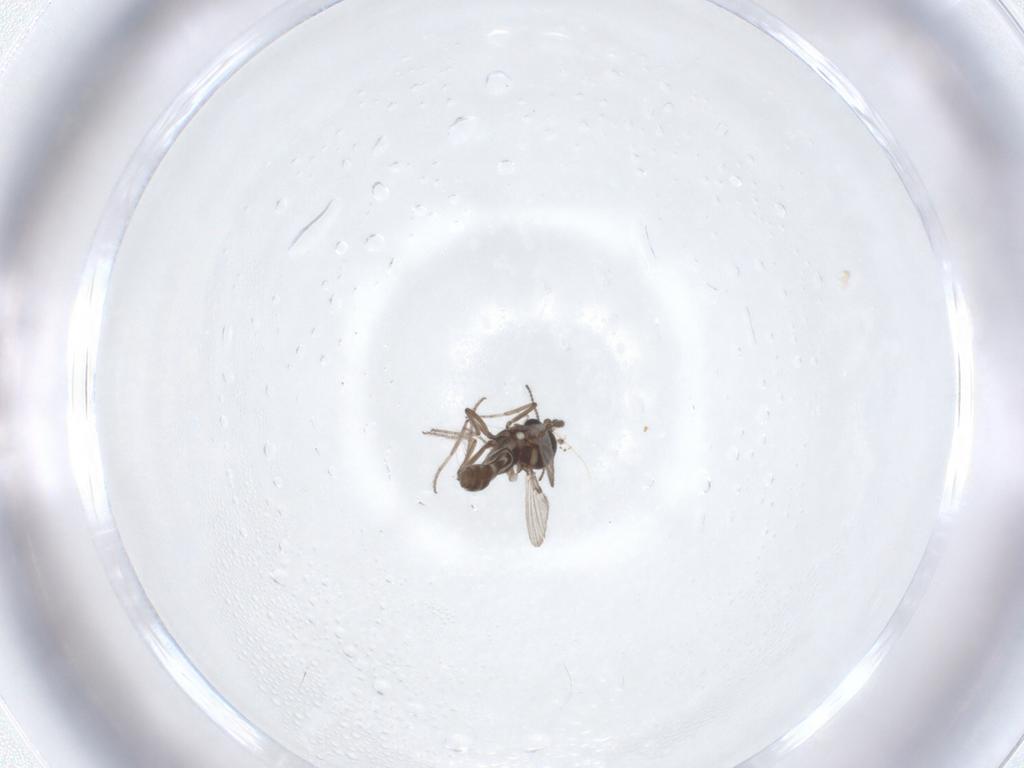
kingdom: Animalia
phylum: Arthropoda
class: Insecta
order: Diptera
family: Ceratopogonidae
